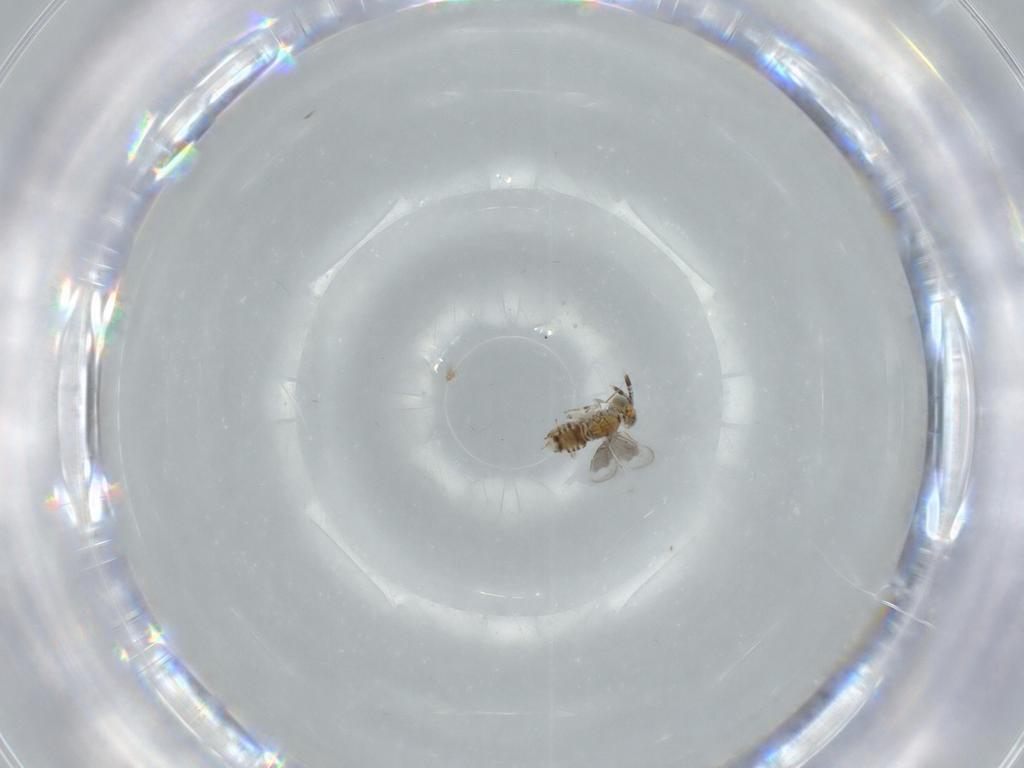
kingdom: Animalia
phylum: Arthropoda
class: Insecta
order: Hymenoptera
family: Aphelinidae
